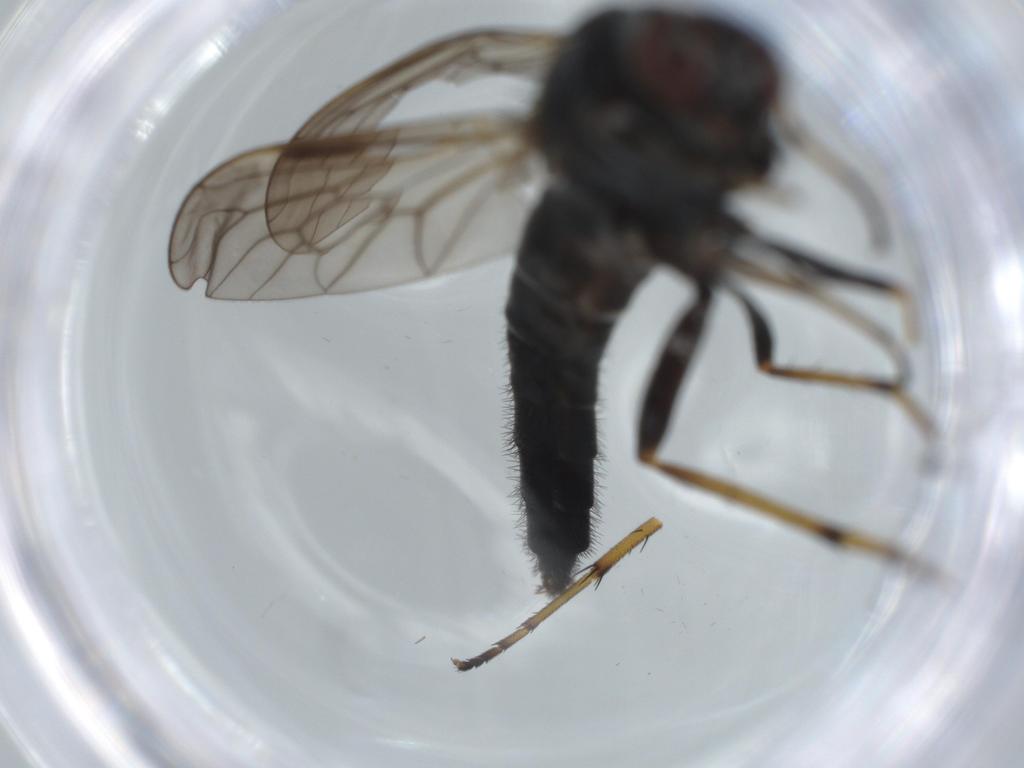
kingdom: Animalia
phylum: Arthropoda
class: Insecta
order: Diptera
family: Therevidae
